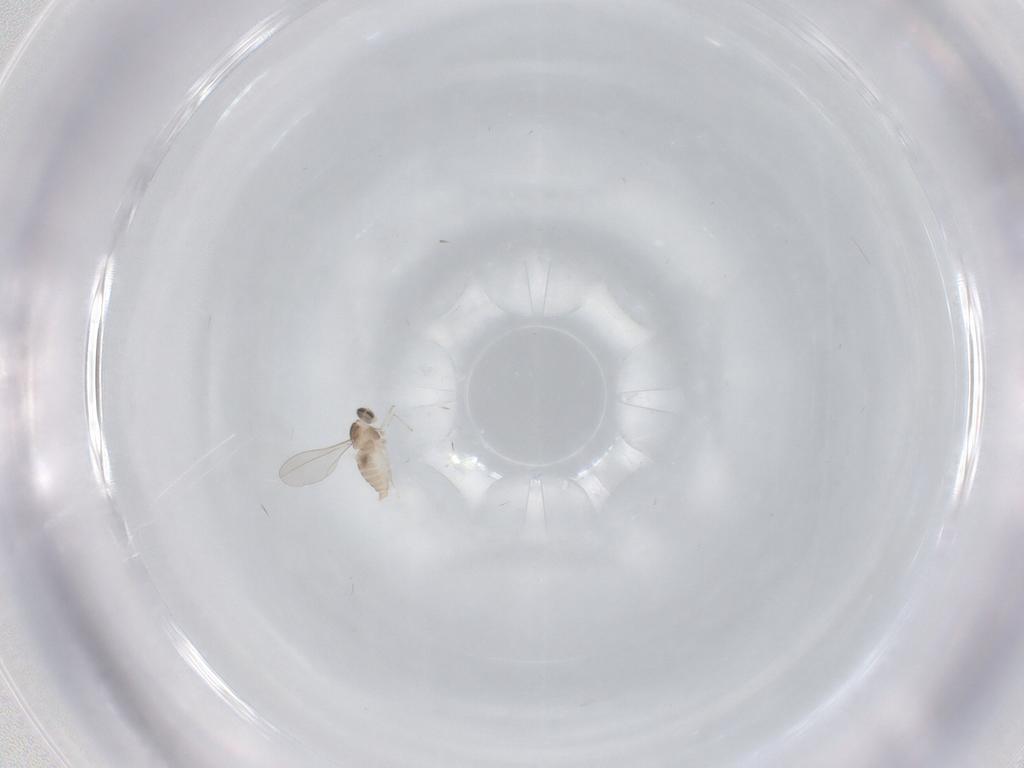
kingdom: Animalia
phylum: Arthropoda
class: Insecta
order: Diptera
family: Cecidomyiidae
